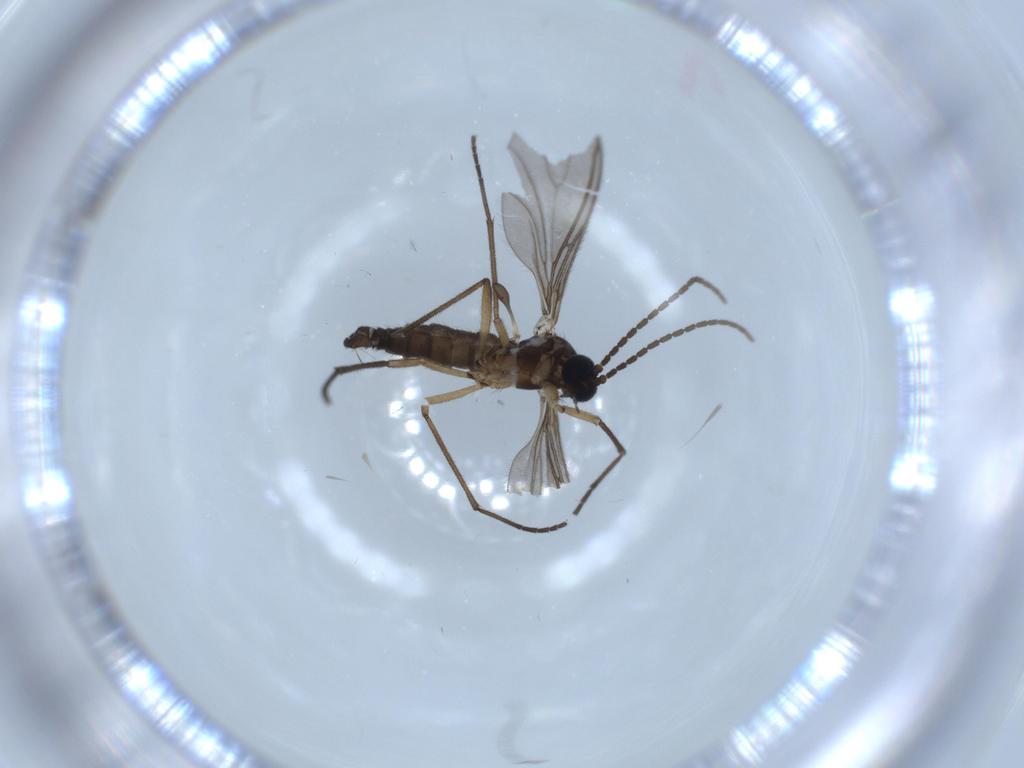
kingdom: Animalia
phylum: Arthropoda
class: Insecta
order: Diptera
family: Sciaridae
